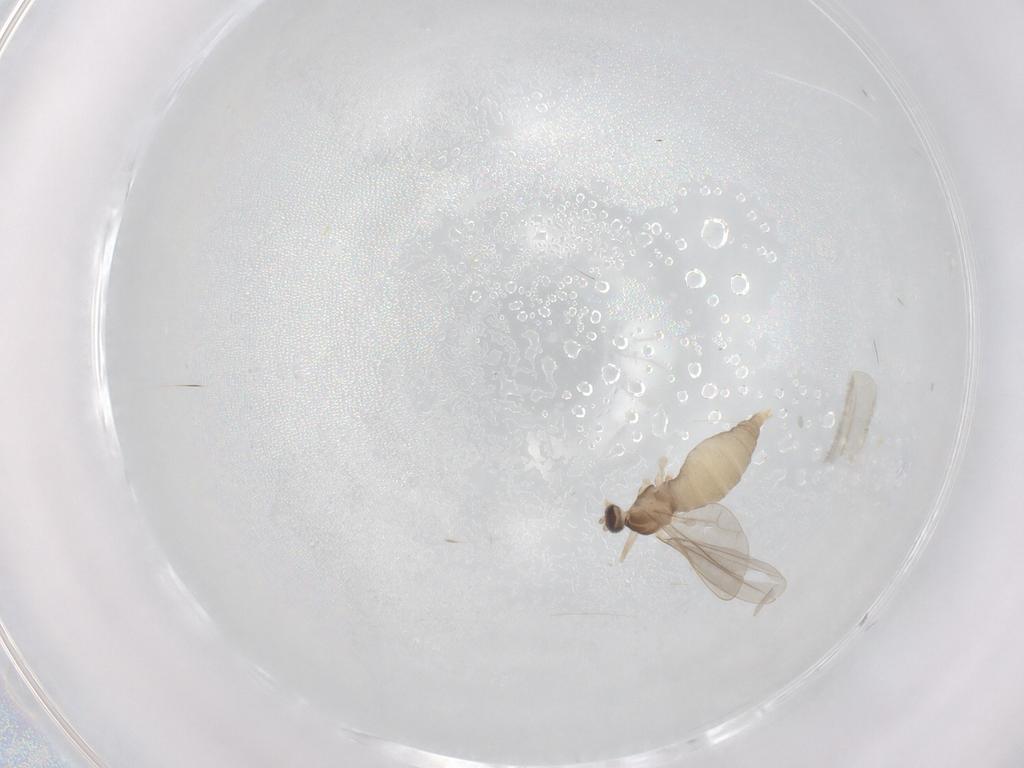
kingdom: Animalia
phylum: Arthropoda
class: Insecta
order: Diptera
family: Cecidomyiidae
